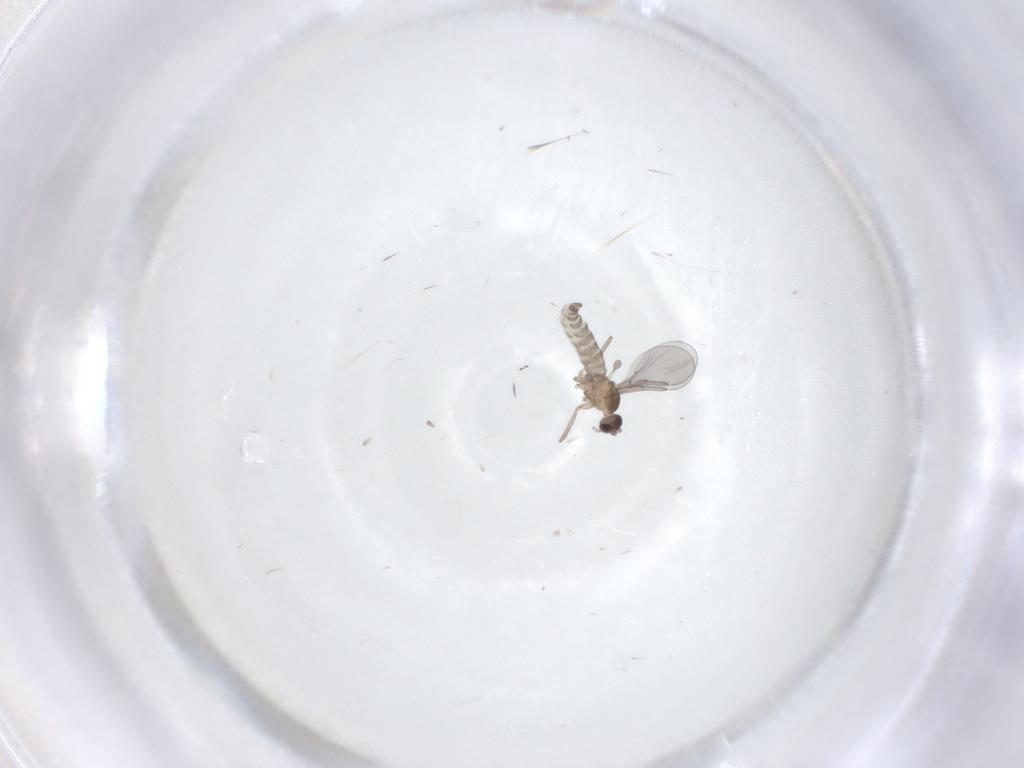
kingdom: Animalia
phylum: Arthropoda
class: Insecta
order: Diptera
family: Cecidomyiidae
